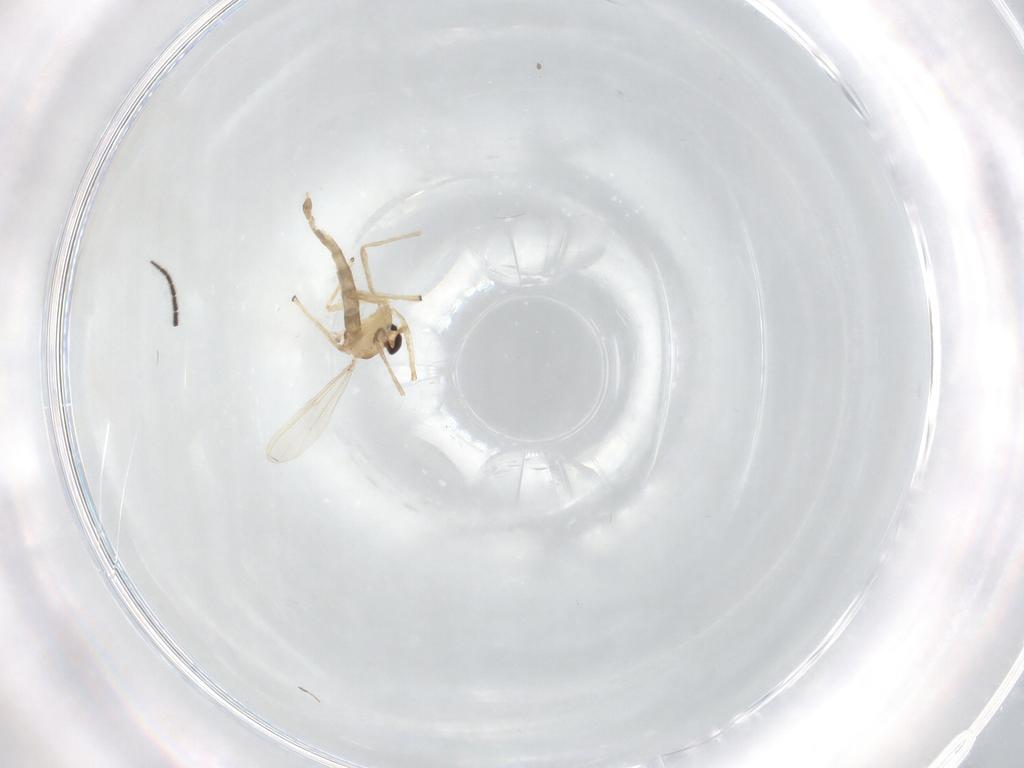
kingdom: Animalia
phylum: Arthropoda
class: Insecta
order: Diptera
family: Chironomidae
